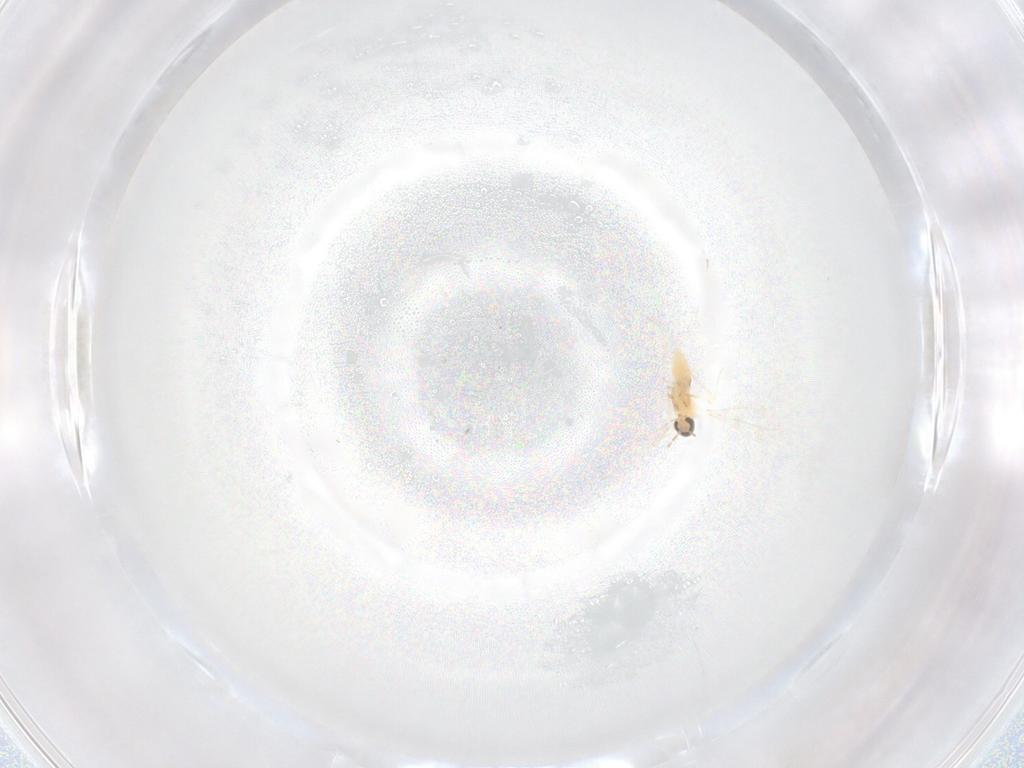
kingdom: Animalia
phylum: Arthropoda
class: Insecta
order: Diptera
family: Cecidomyiidae
